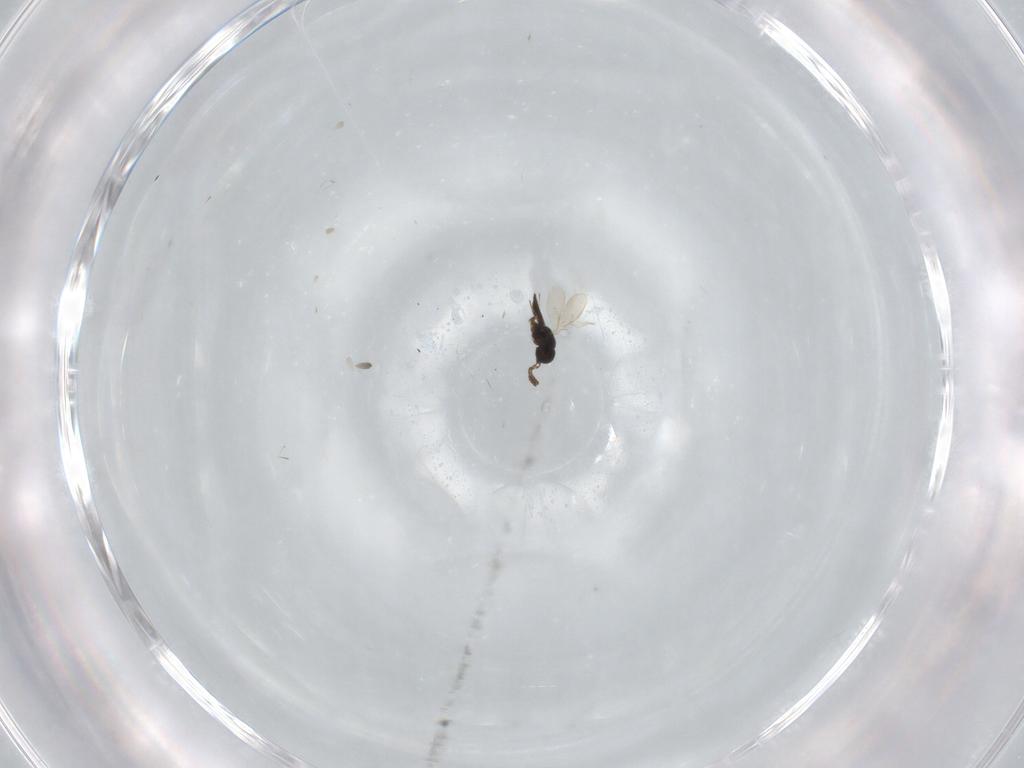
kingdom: Animalia
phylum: Arthropoda
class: Insecta
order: Hymenoptera
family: Scelionidae
